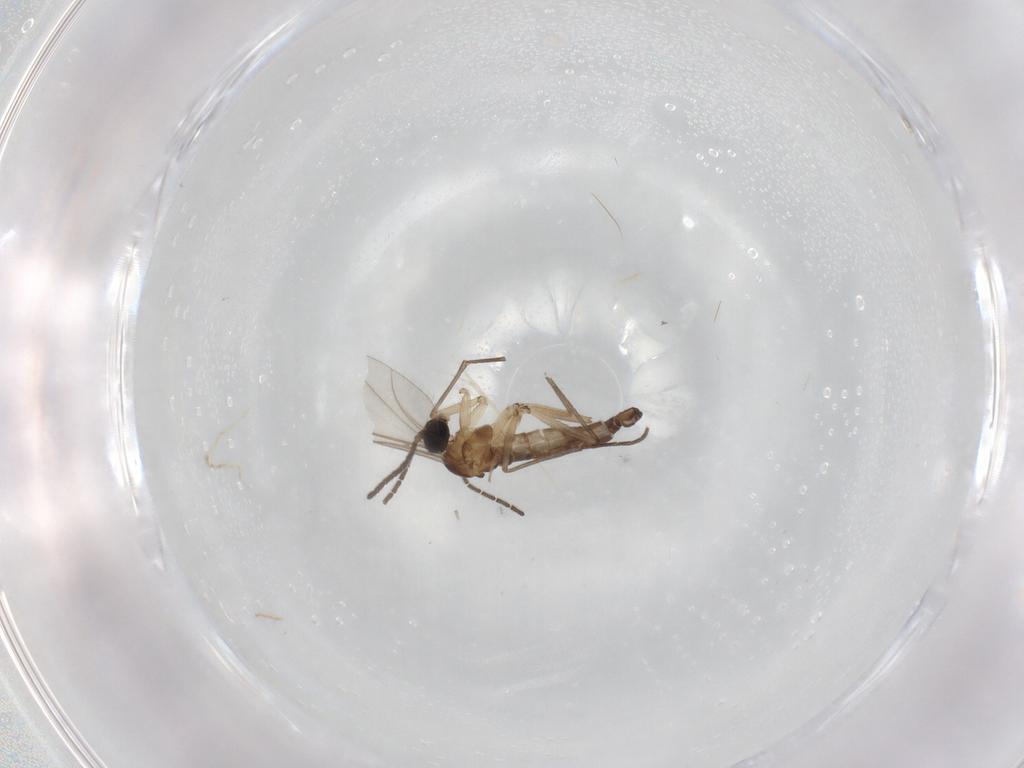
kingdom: Animalia
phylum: Arthropoda
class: Insecta
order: Diptera
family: Sciaridae
